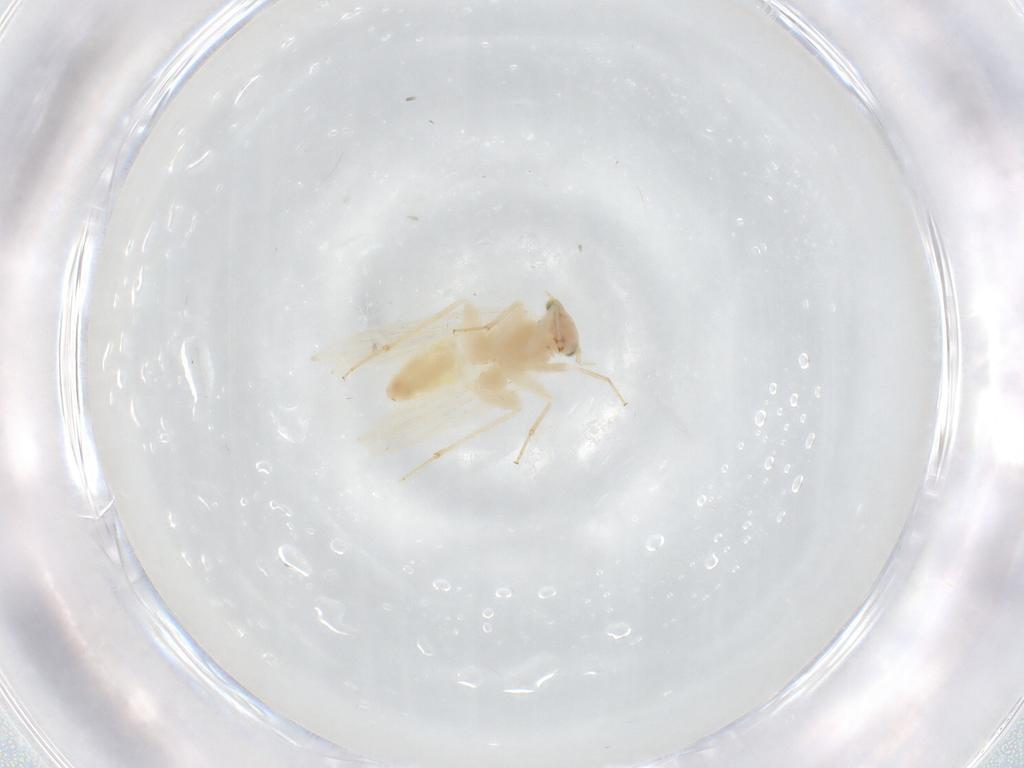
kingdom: Animalia
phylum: Arthropoda
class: Insecta
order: Psocodea
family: Lepidopsocidae
